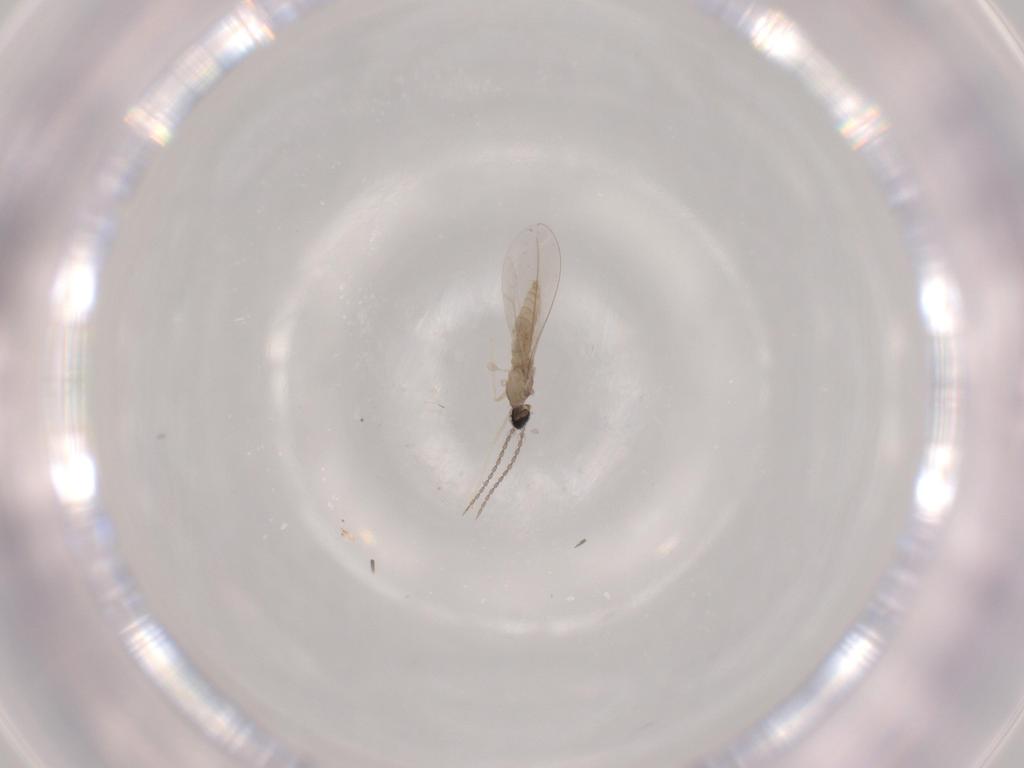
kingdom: Animalia
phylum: Arthropoda
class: Insecta
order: Diptera
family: Cecidomyiidae
